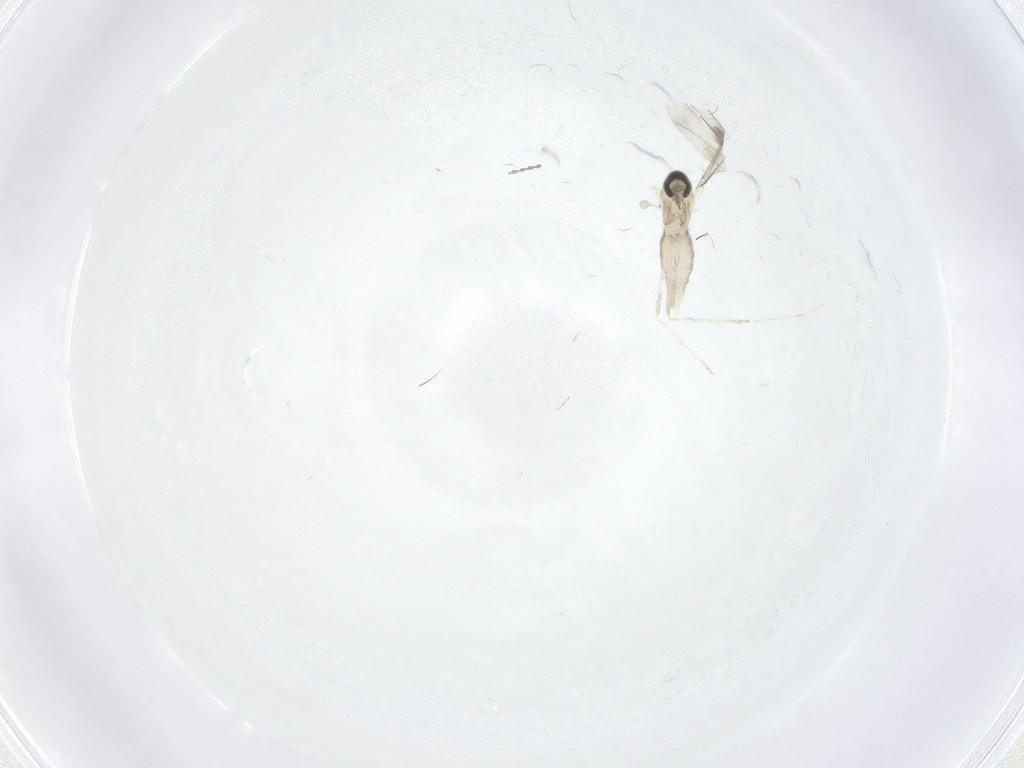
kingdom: Animalia
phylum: Arthropoda
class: Insecta
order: Diptera
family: Cecidomyiidae
